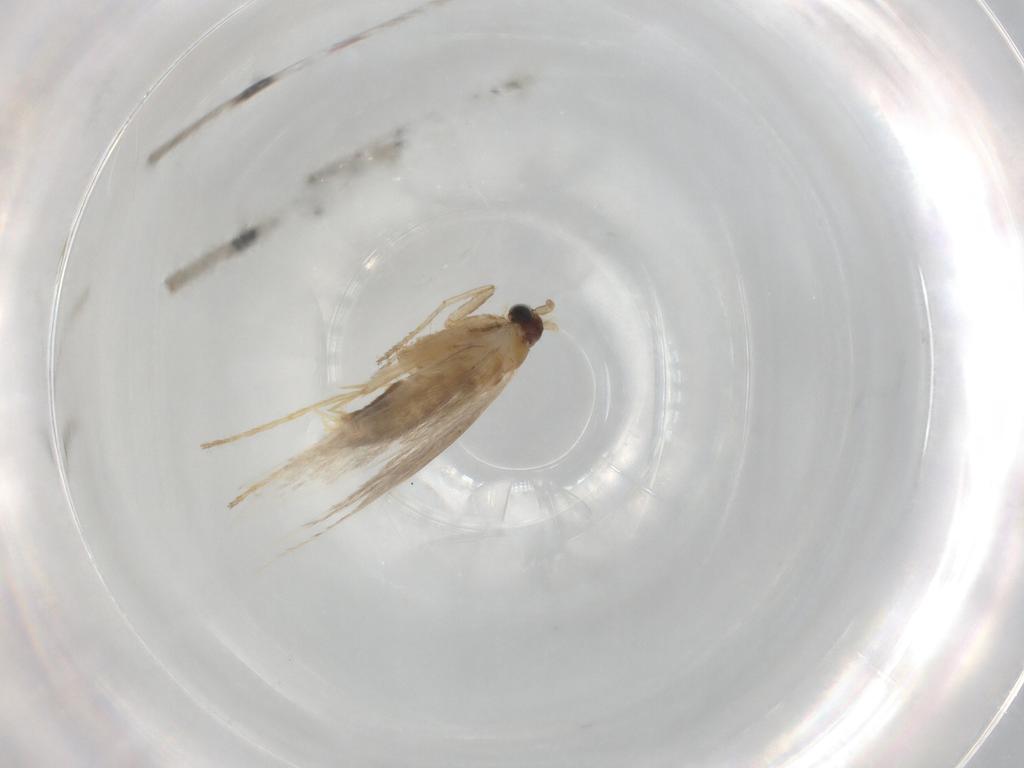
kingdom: Animalia
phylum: Arthropoda
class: Insecta
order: Lepidoptera
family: Tineidae
